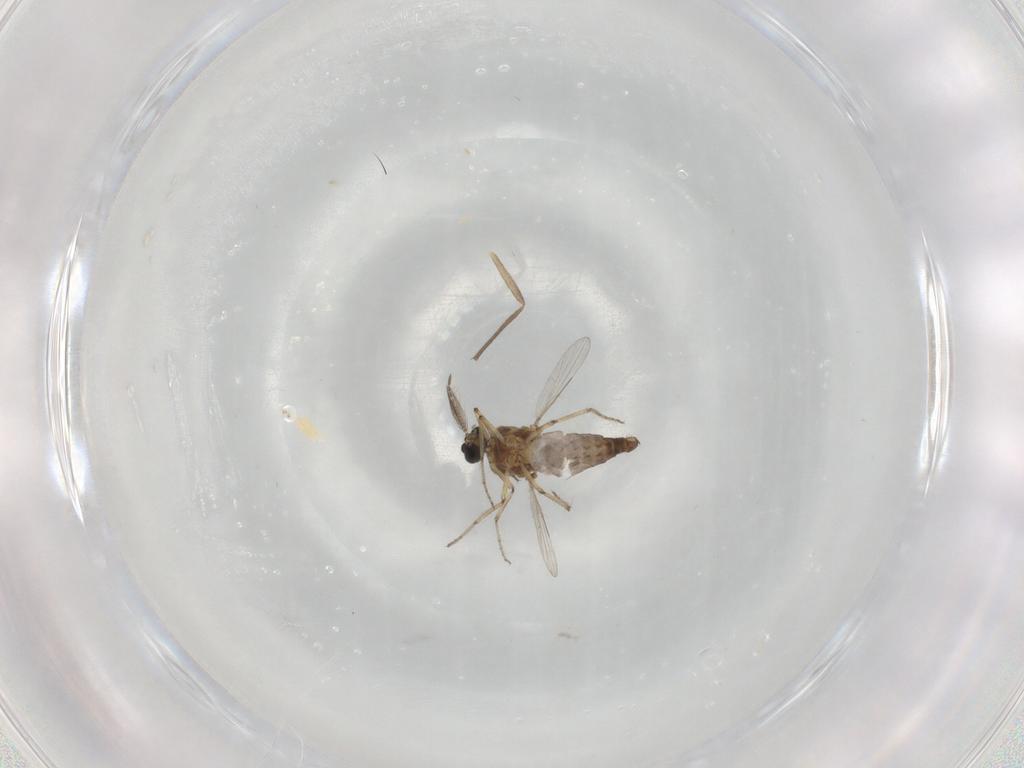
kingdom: Animalia
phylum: Arthropoda
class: Insecta
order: Diptera
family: Ceratopogonidae
